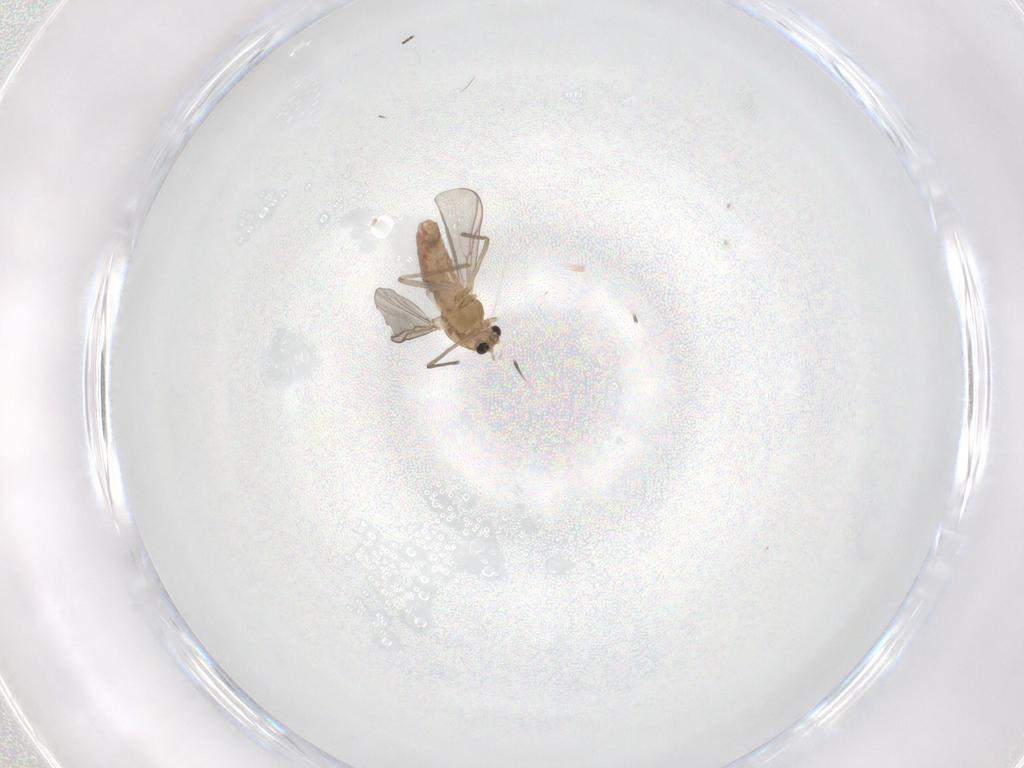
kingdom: Animalia
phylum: Arthropoda
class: Insecta
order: Diptera
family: Chironomidae
